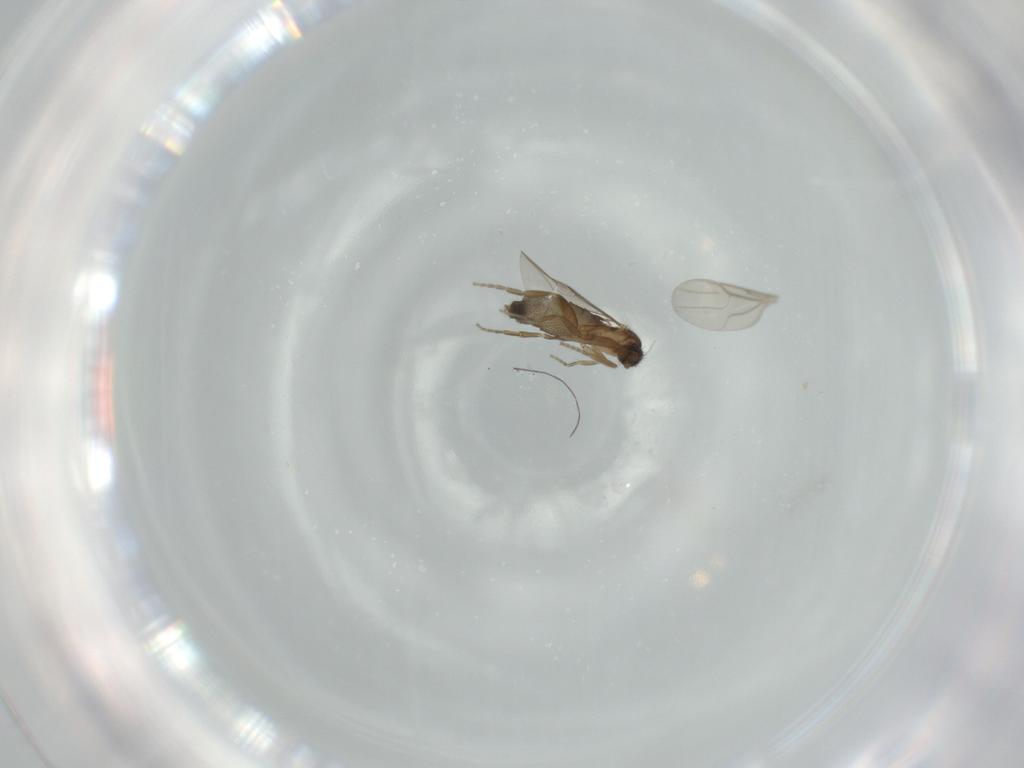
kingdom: Animalia
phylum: Arthropoda
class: Insecta
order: Diptera
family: Phoridae
